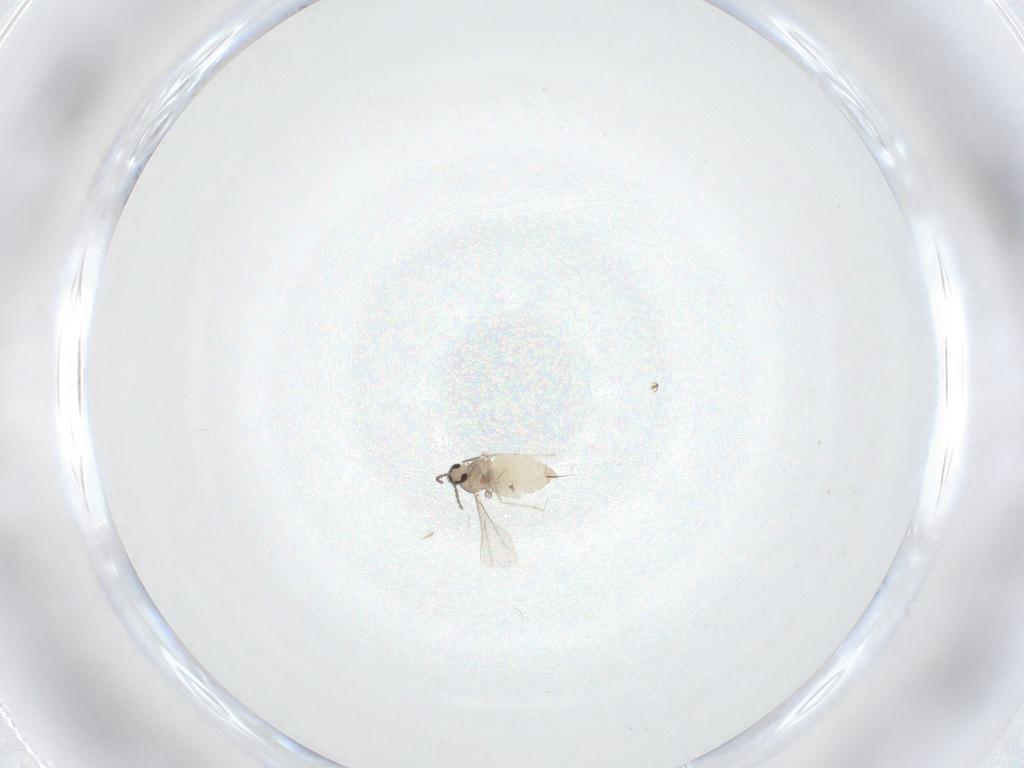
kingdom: Animalia
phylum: Arthropoda
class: Insecta
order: Diptera
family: Cecidomyiidae
